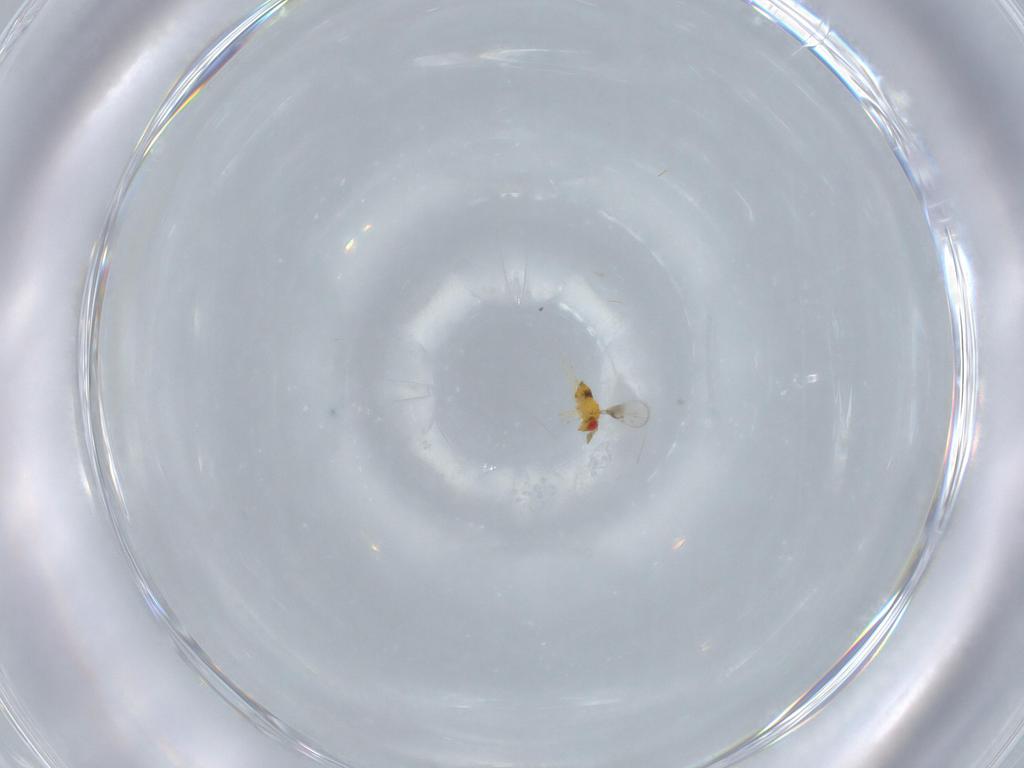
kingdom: Animalia
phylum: Arthropoda
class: Insecta
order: Hymenoptera
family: Trichogrammatidae
